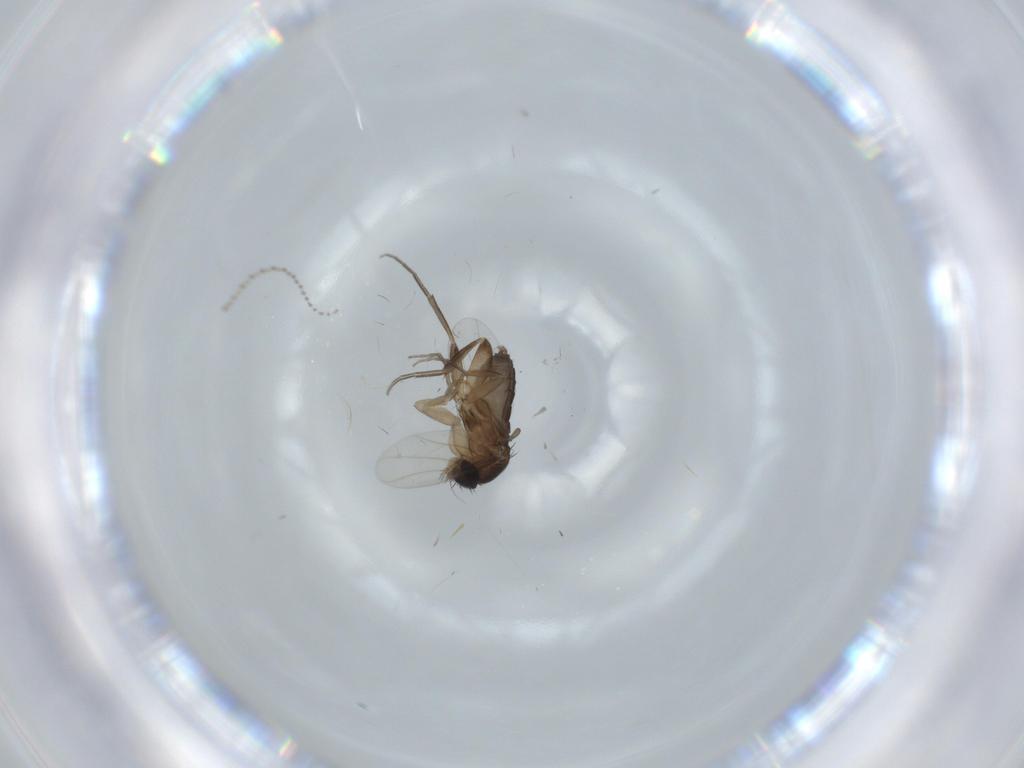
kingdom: Animalia
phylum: Arthropoda
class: Insecta
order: Diptera
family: Phoridae
